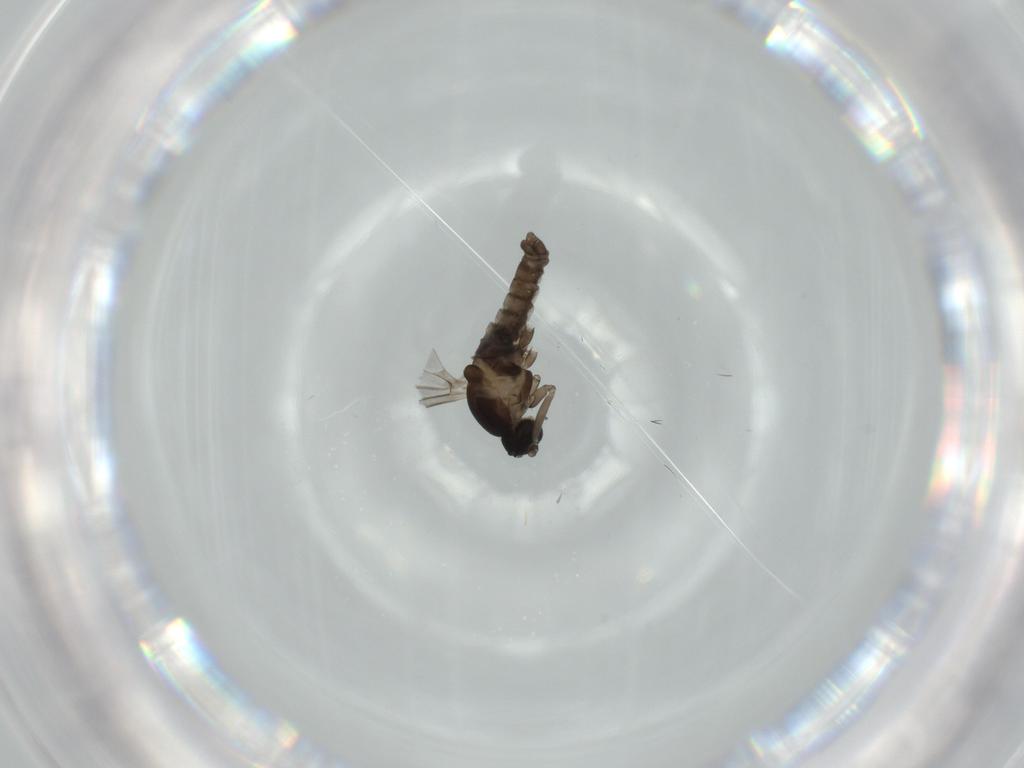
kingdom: Animalia
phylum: Arthropoda
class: Insecta
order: Diptera
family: Cecidomyiidae
